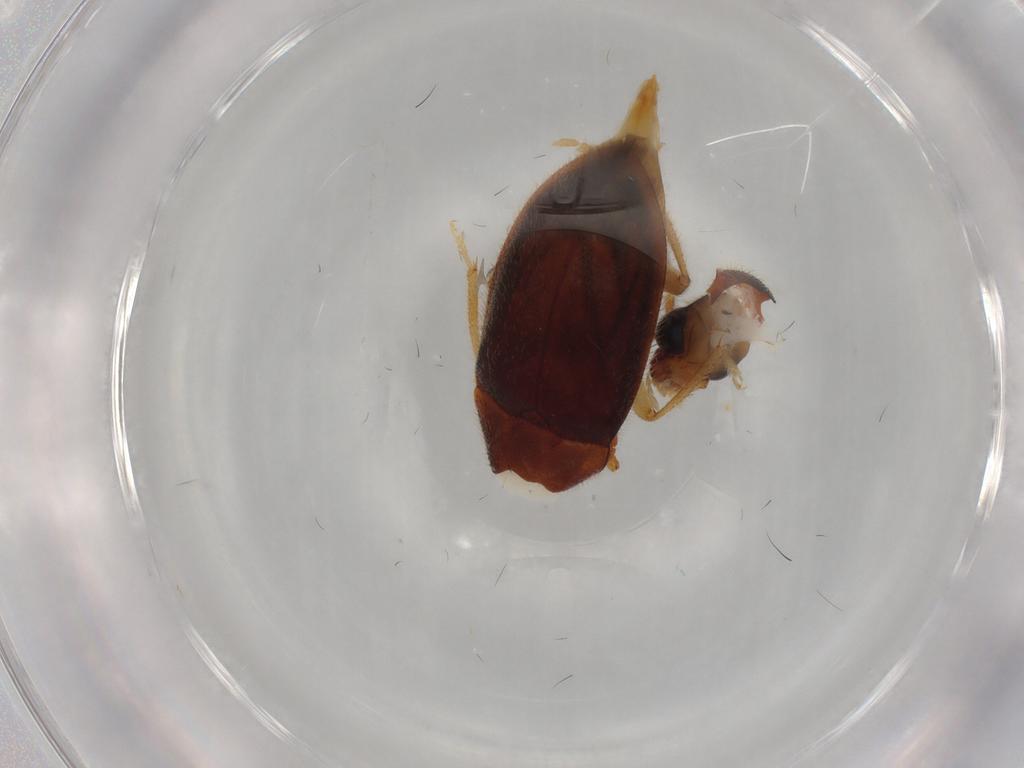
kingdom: Animalia
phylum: Arthropoda
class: Insecta
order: Coleoptera
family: Ptilodactylidae
